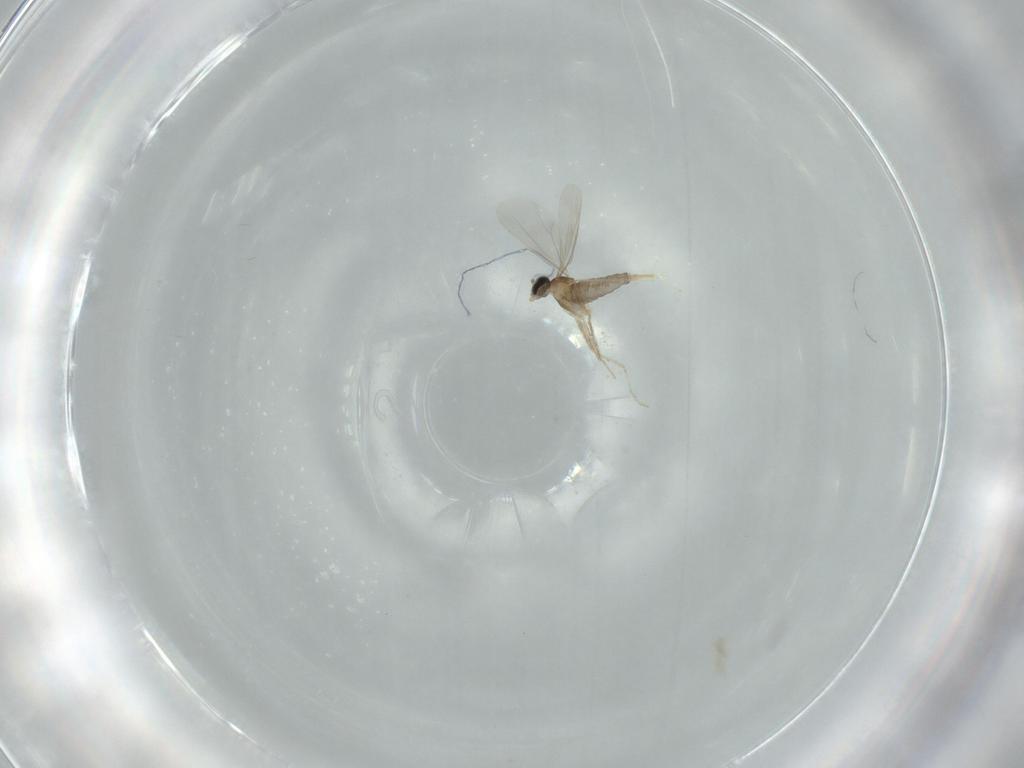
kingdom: Animalia
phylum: Arthropoda
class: Insecta
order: Diptera
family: Cecidomyiidae
